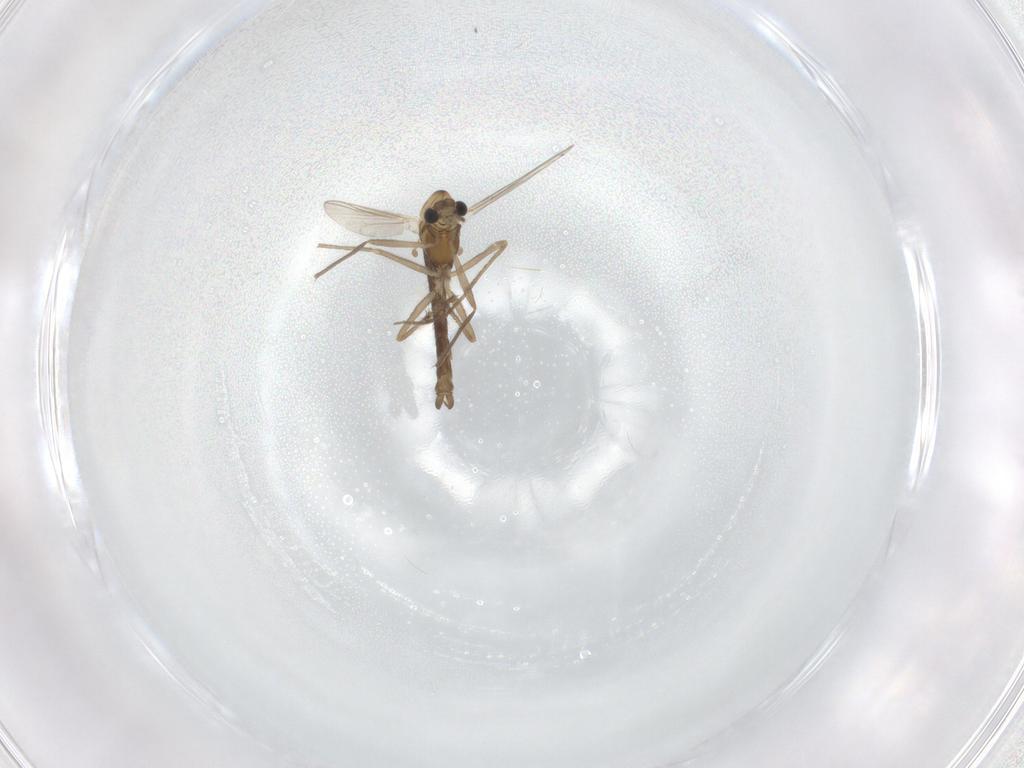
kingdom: Animalia
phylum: Arthropoda
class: Insecta
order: Diptera
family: Chironomidae
